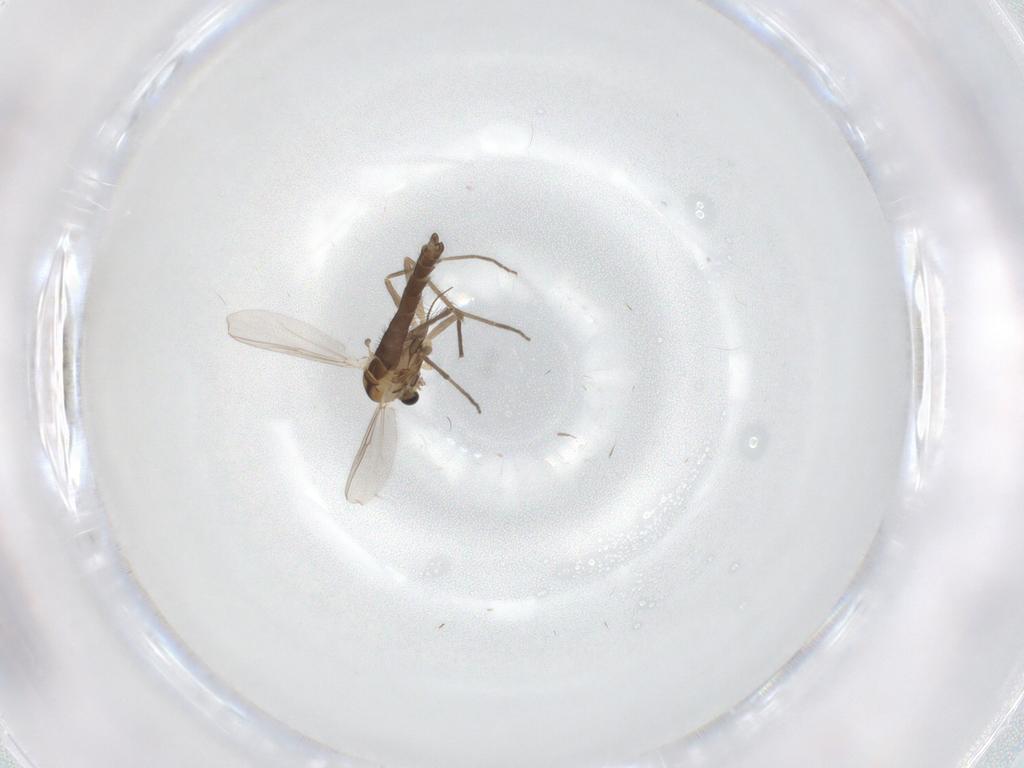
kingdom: Animalia
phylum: Arthropoda
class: Insecta
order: Diptera
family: Chironomidae
